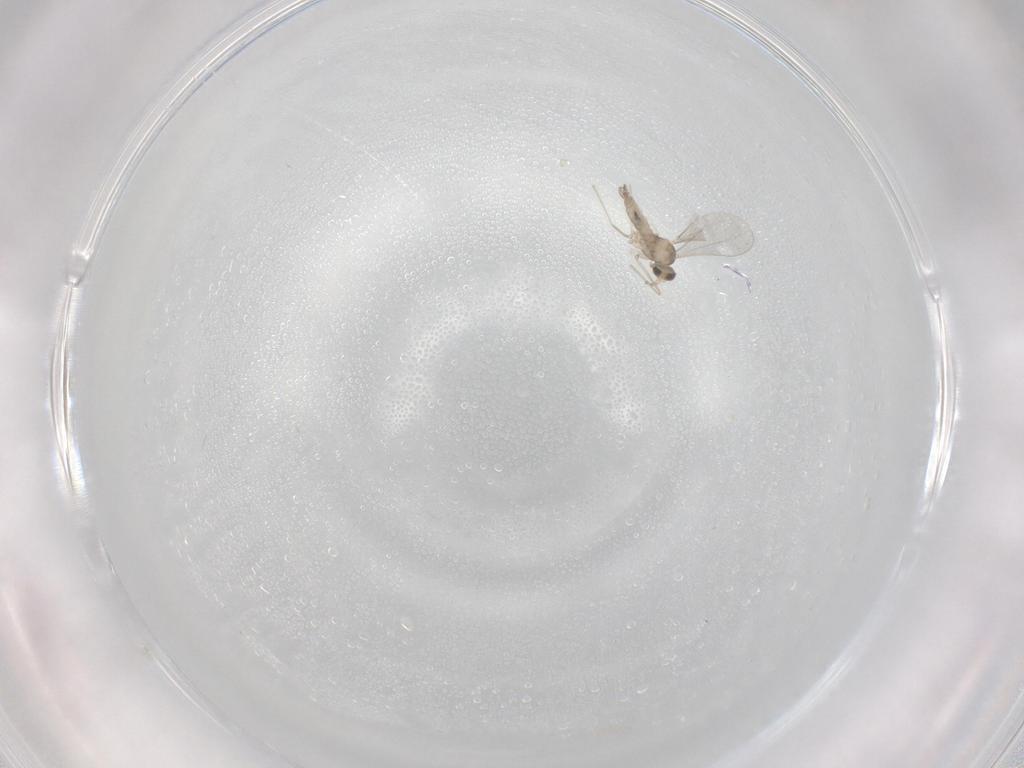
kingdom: Animalia
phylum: Arthropoda
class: Insecta
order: Diptera
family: Cecidomyiidae
